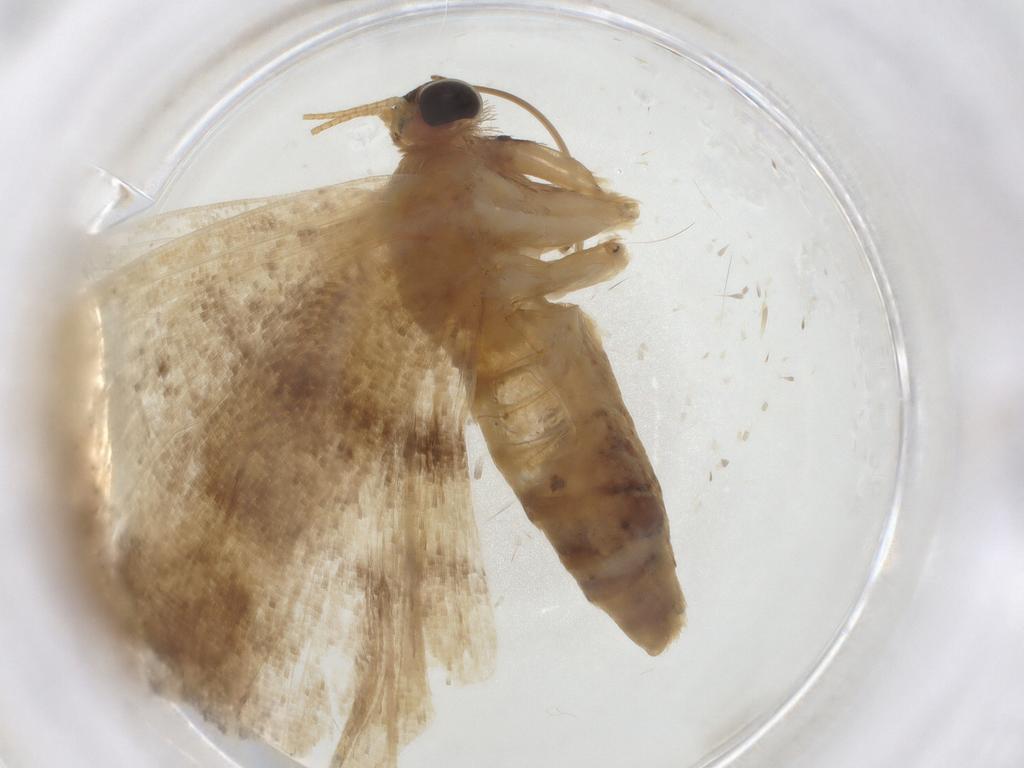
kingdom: Animalia
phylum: Arthropoda
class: Insecta
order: Lepidoptera
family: Geometridae
